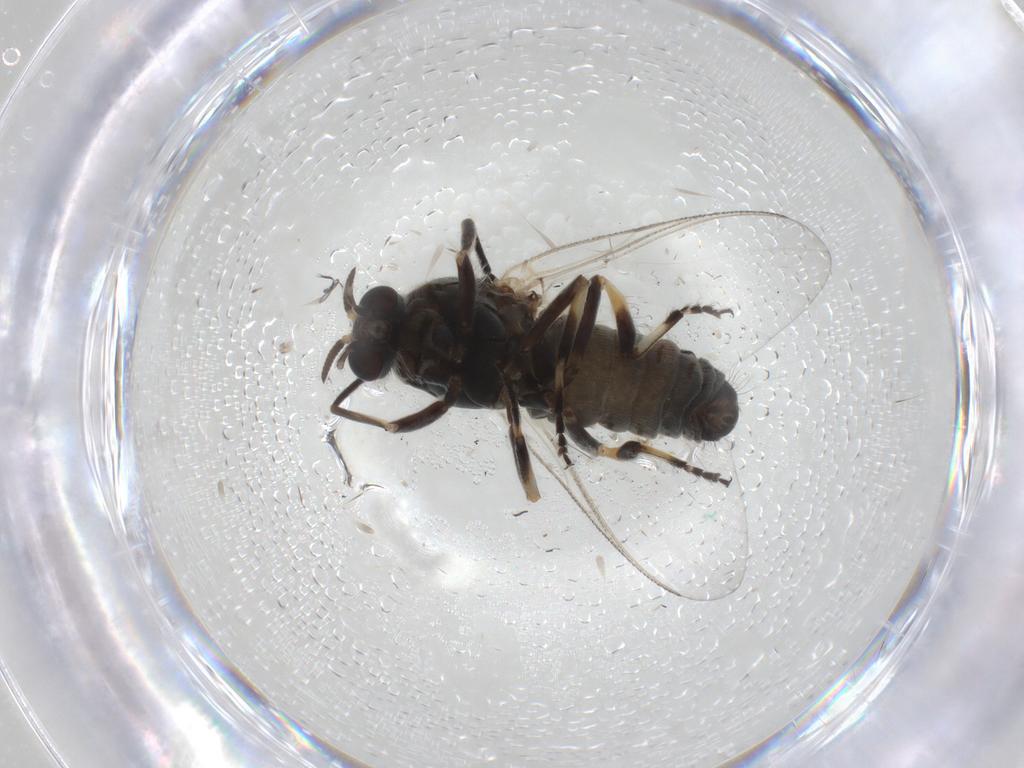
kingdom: Animalia
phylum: Arthropoda
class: Insecta
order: Diptera
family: Simuliidae
